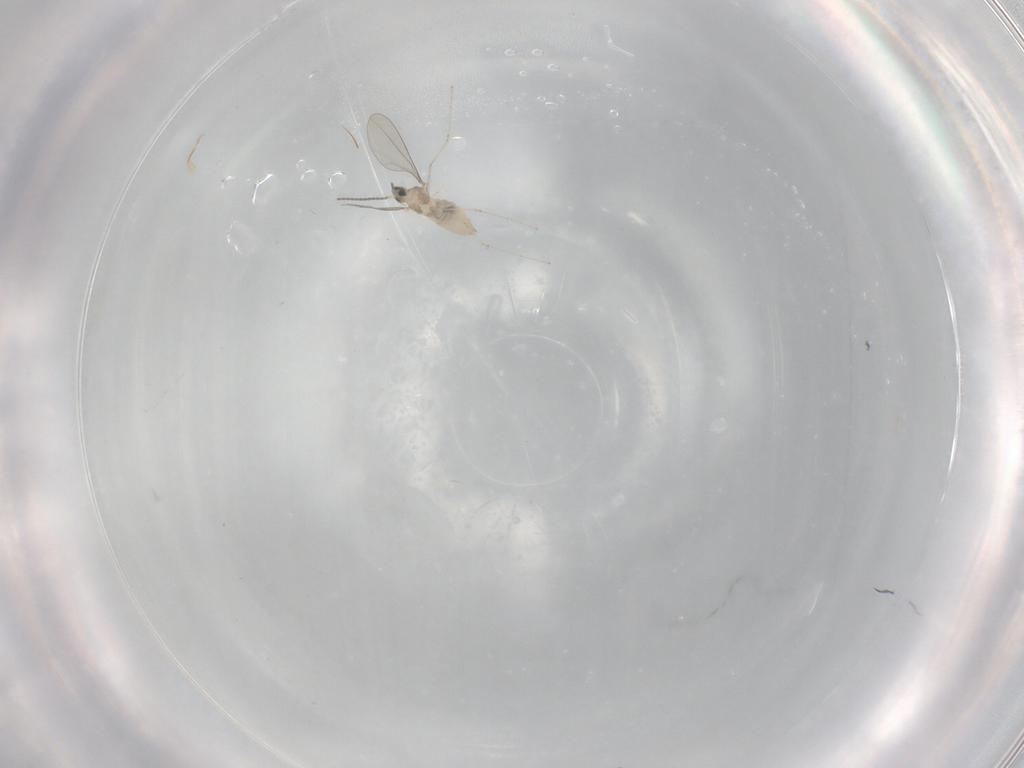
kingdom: Animalia
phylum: Arthropoda
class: Insecta
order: Diptera
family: Cecidomyiidae
